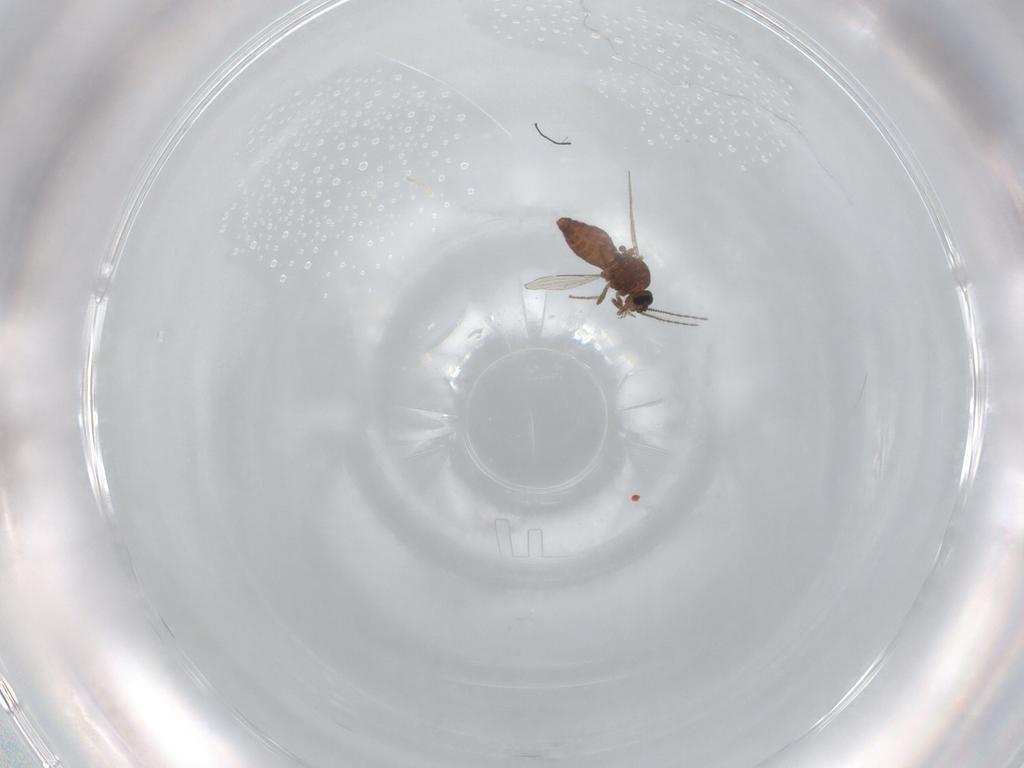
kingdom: Animalia
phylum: Arthropoda
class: Insecta
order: Diptera
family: Ceratopogonidae
